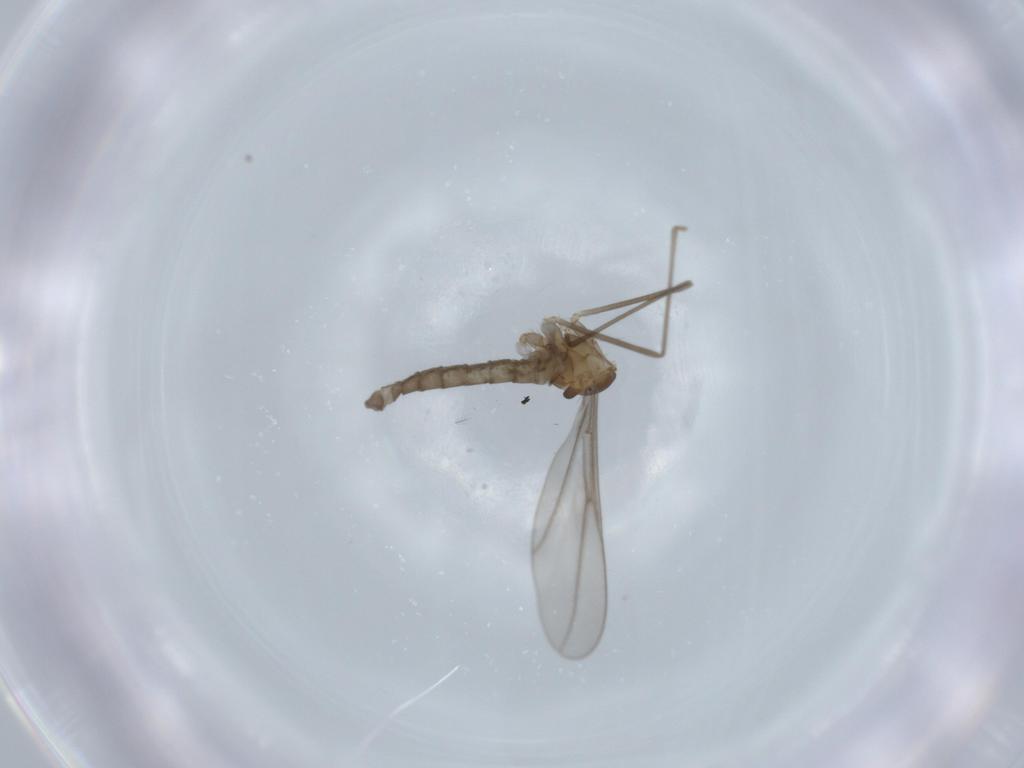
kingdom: Animalia
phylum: Arthropoda
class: Insecta
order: Diptera
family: Cecidomyiidae
